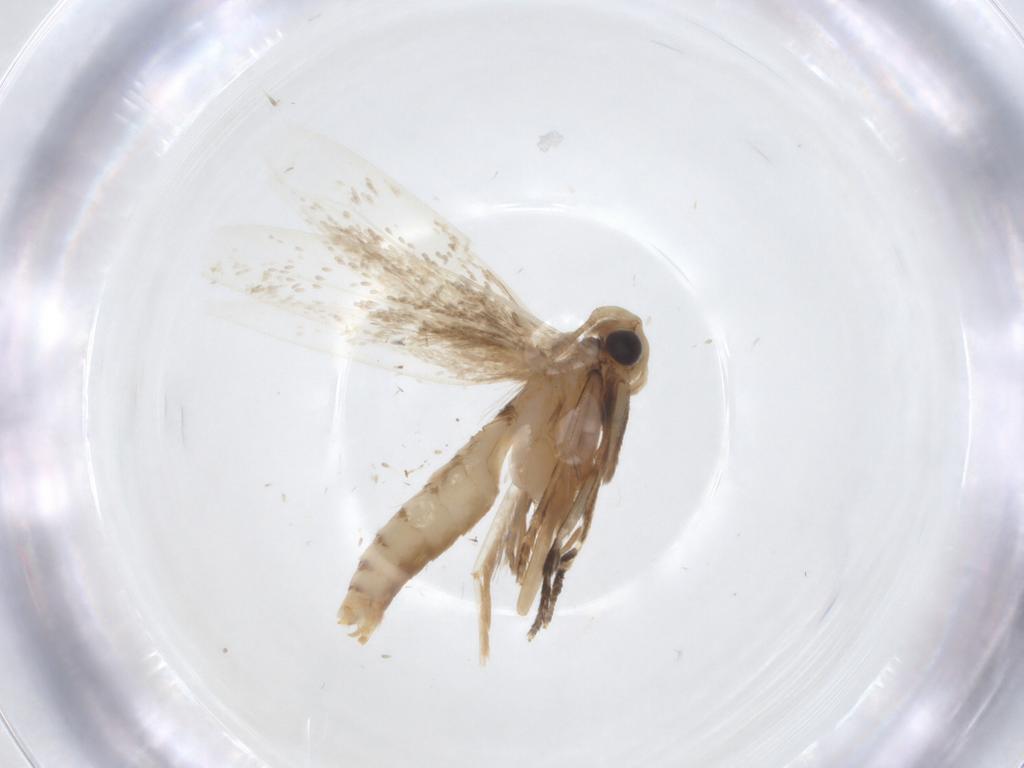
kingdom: Animalia
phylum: Arthropoda
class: Insecta
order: Lepidoptera
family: Tineidae
